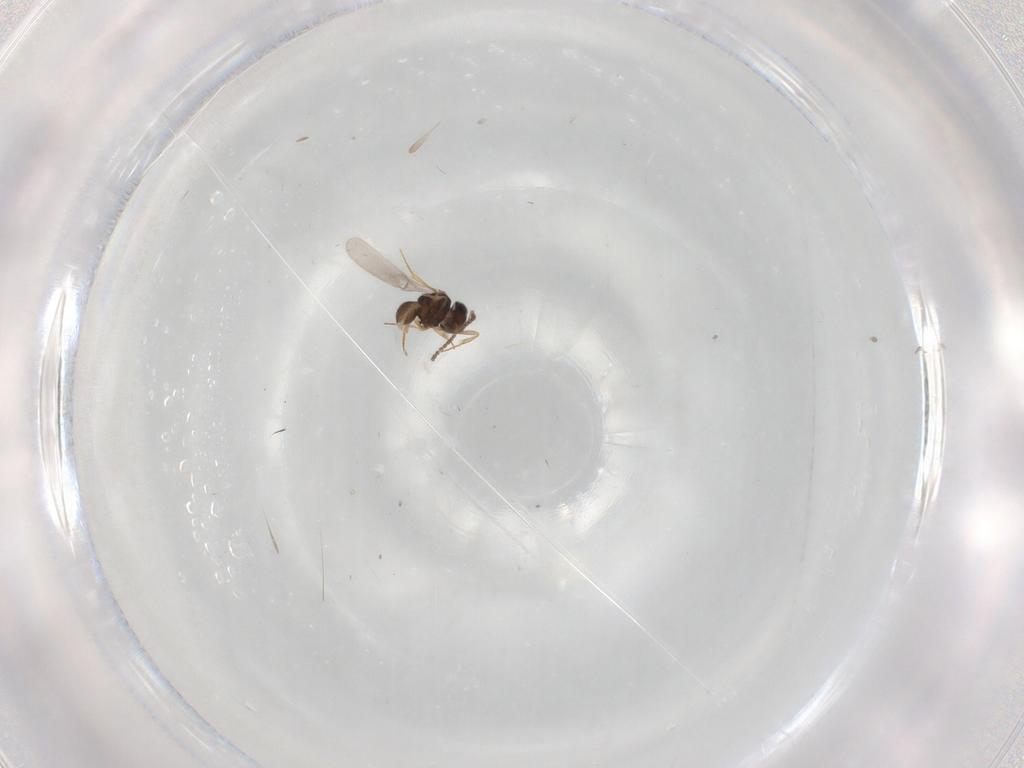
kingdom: Animalia
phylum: Arthropoda
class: Insecta
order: Hymenoptera
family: Scelionidae
